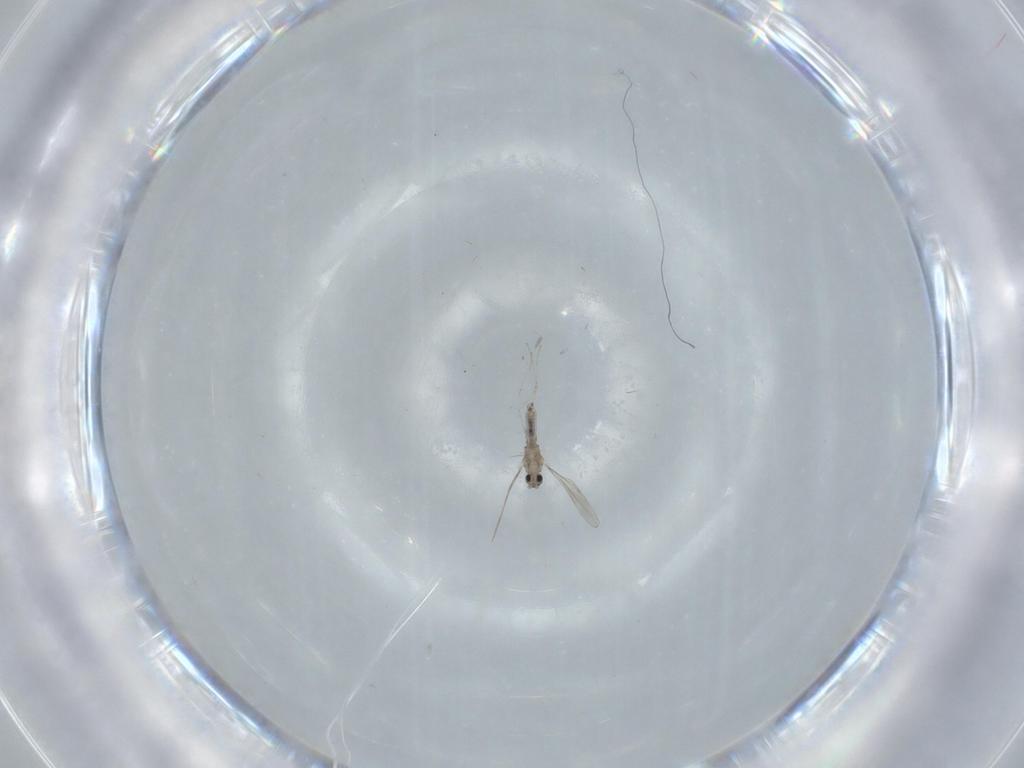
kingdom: Animalia
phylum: Arthropoda
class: Insecta
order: Diptera
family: Cecidomyiidae
